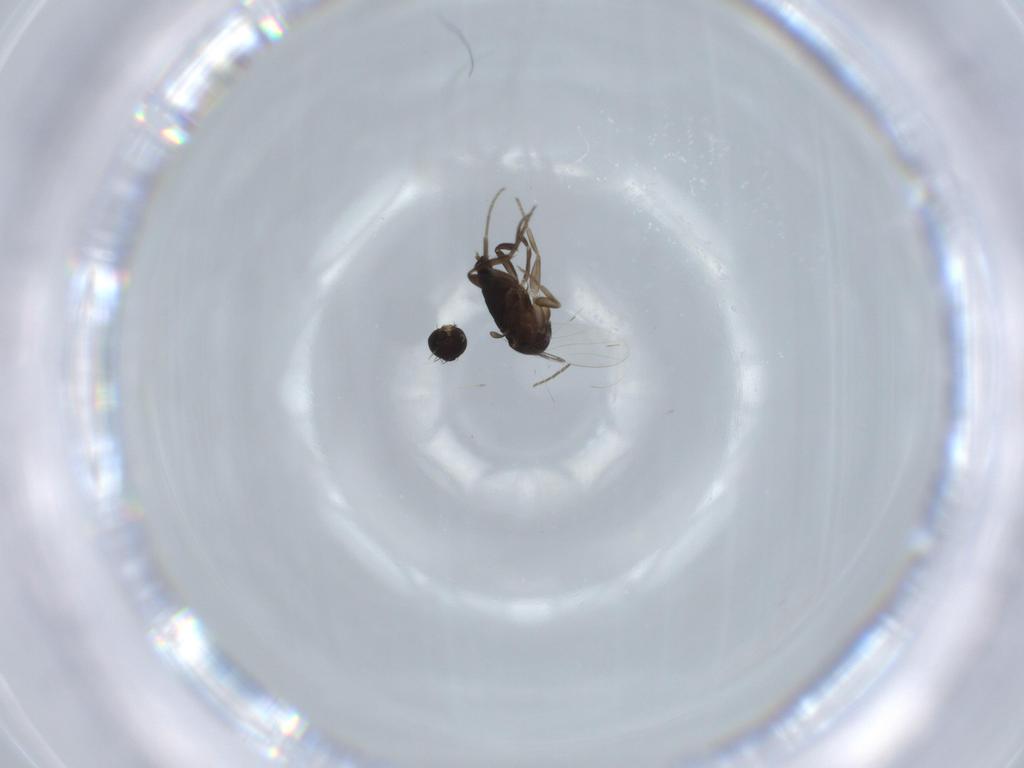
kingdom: Animalia
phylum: Arthropoda
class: Insecta
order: Diptera
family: Phoridae
